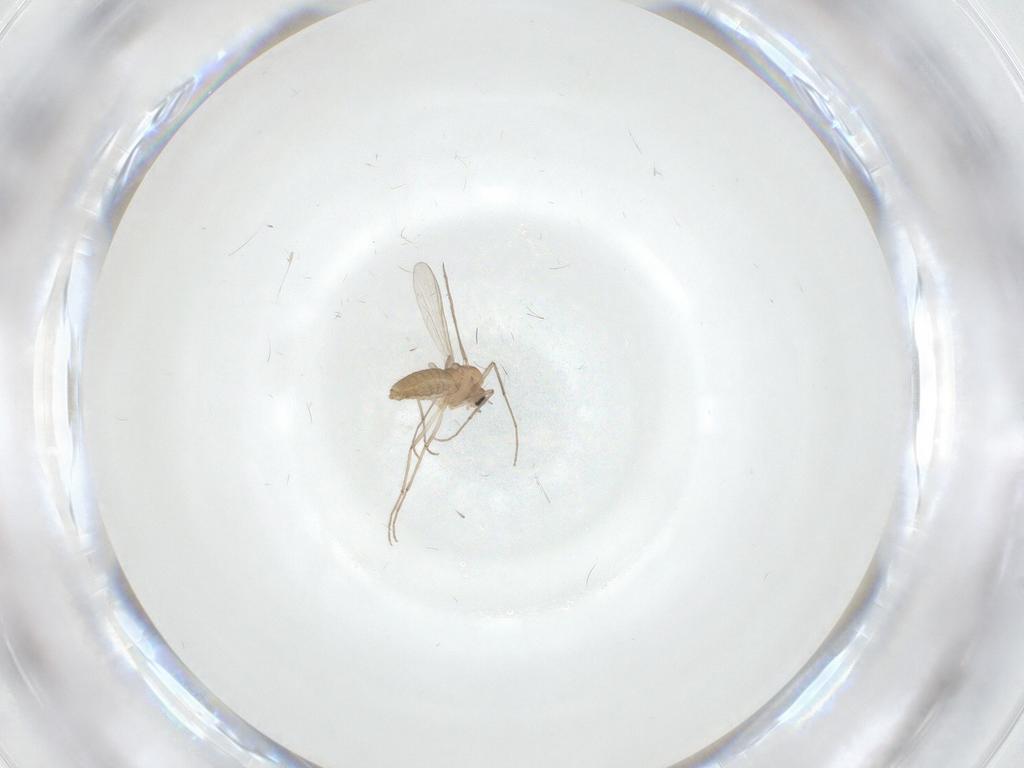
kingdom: Animalia
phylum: Arthropoda
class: Insecta
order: Diptera
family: Chironomidae
